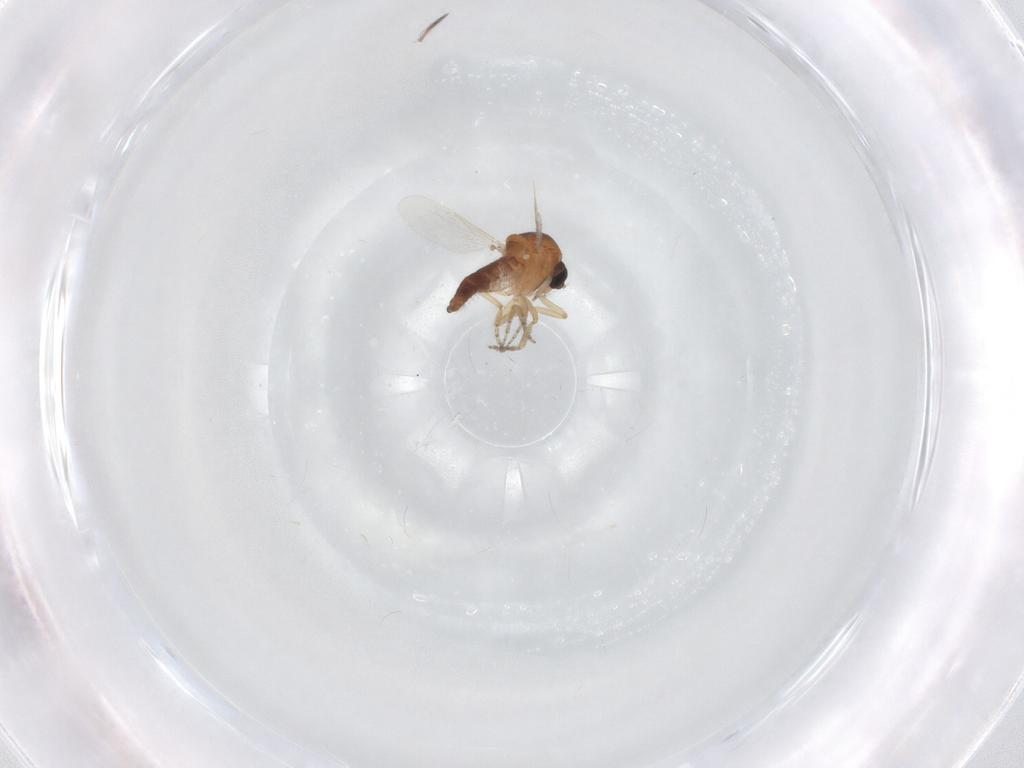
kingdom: Animalia
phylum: Arthropoda
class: Insecta
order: Diptera
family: Ceratopogonidae
